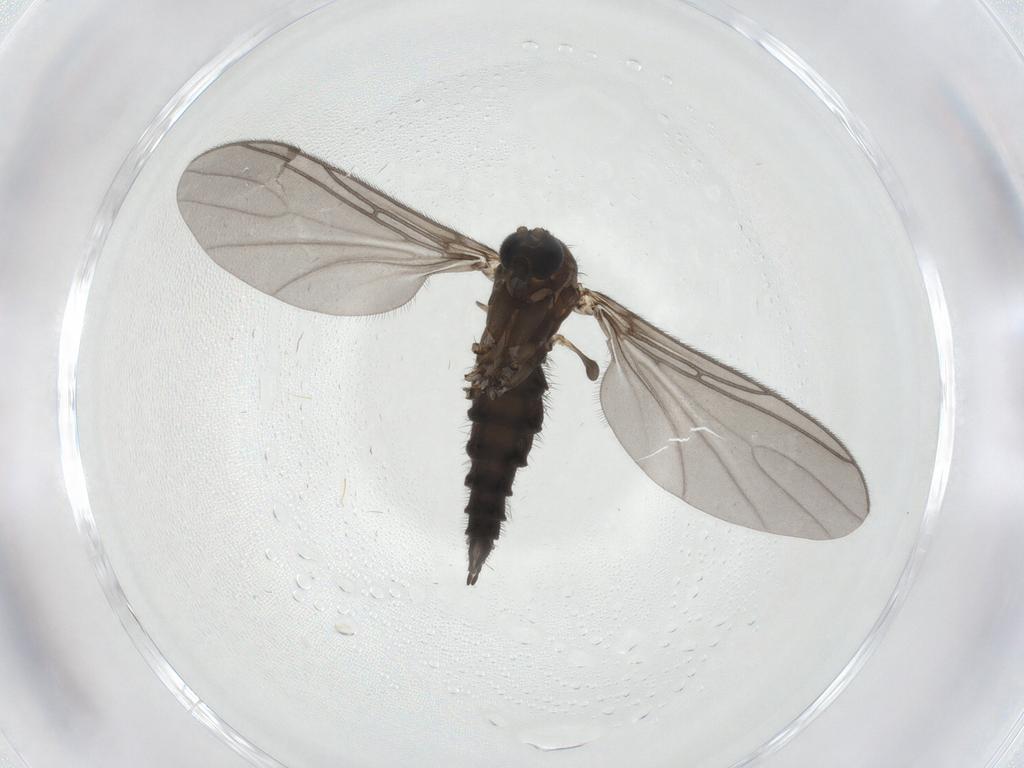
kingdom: Animalia
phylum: Arthropoda
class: Insecta
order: Diptera
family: Sciaridae
